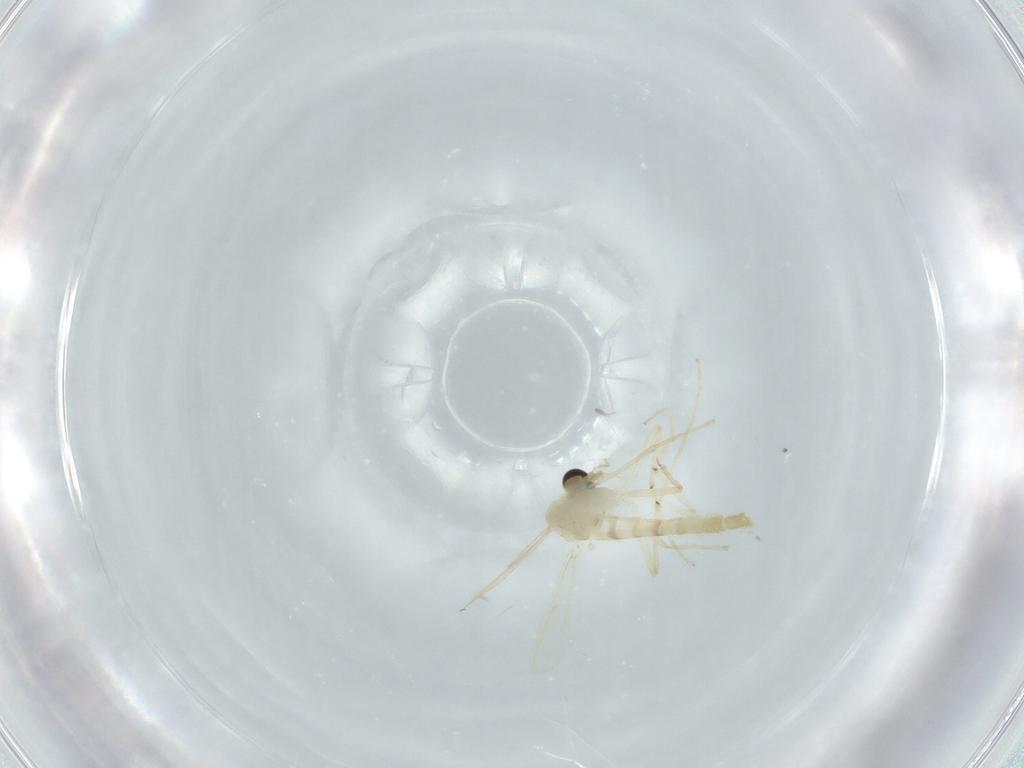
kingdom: Animalia
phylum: Arthropoda
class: Insecta
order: Diptera
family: Chironomidae
